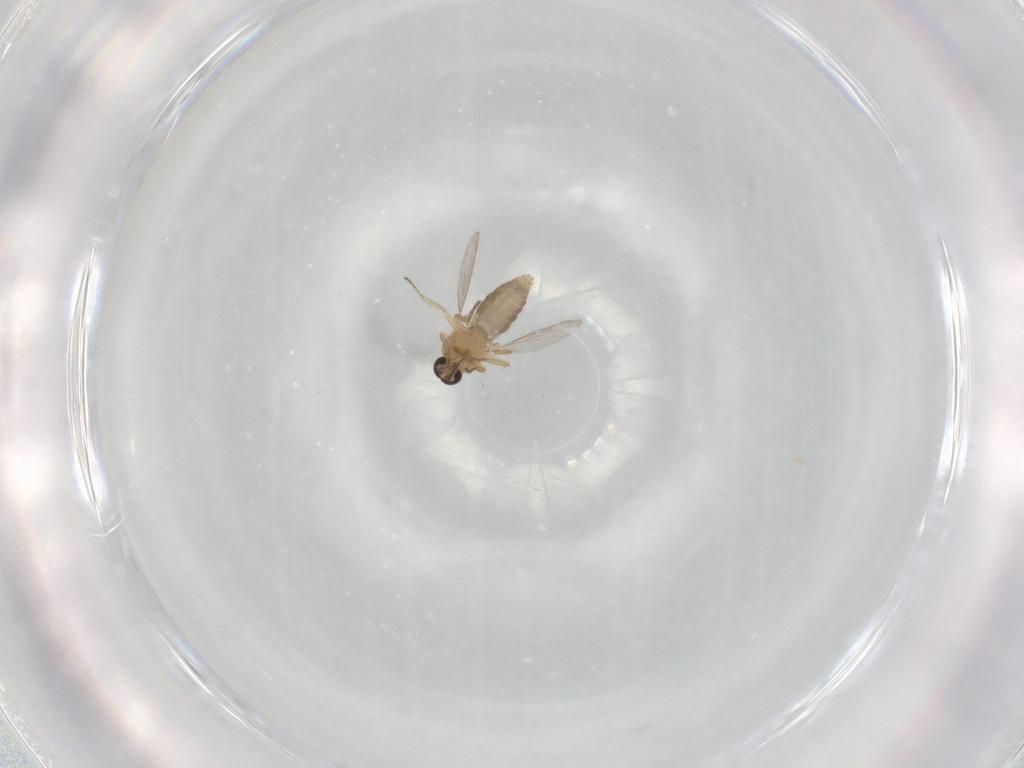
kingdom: Animalia
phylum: Arthropoda
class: Insecta
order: Diptera
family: Ceratopogonidae
